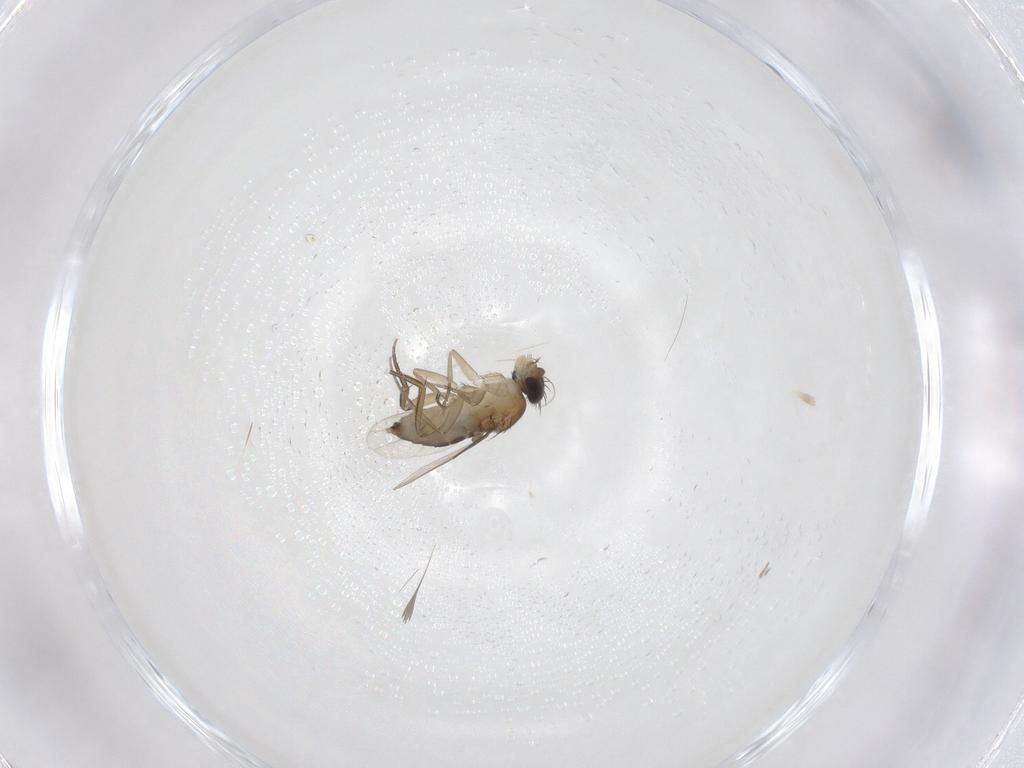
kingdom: Animalia
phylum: Arthropoda
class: Insecta
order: Diptera
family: Phoridae
